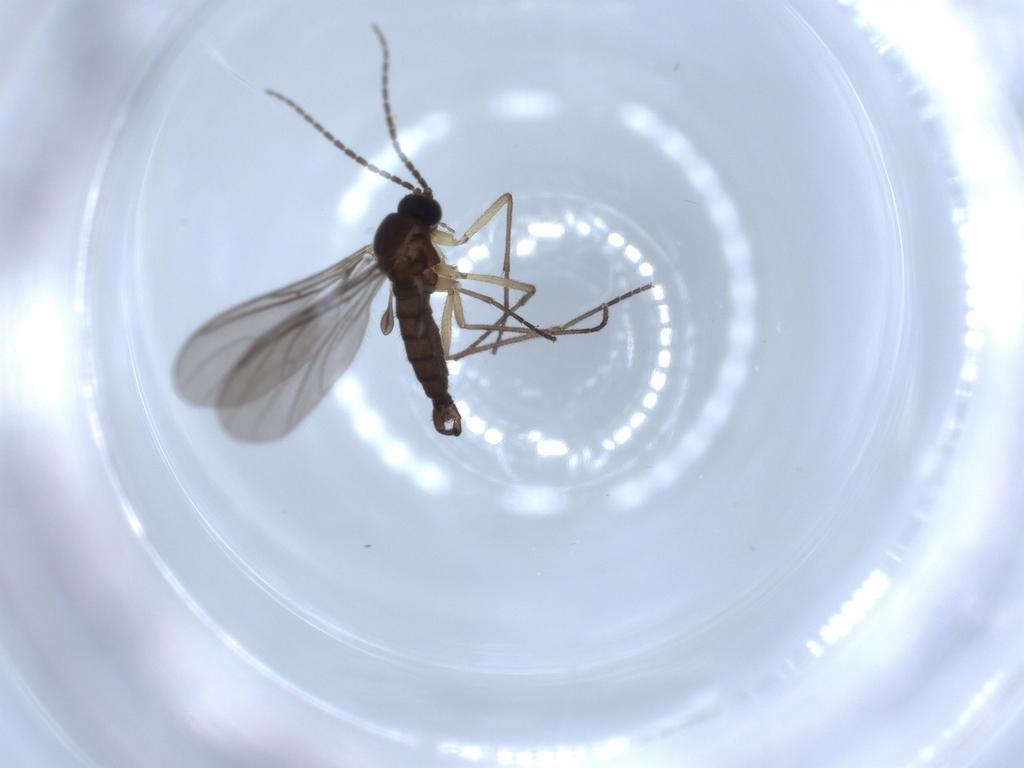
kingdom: Animalia
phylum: Arthropoda
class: Insecta
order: Diptera
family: Sciaridae
